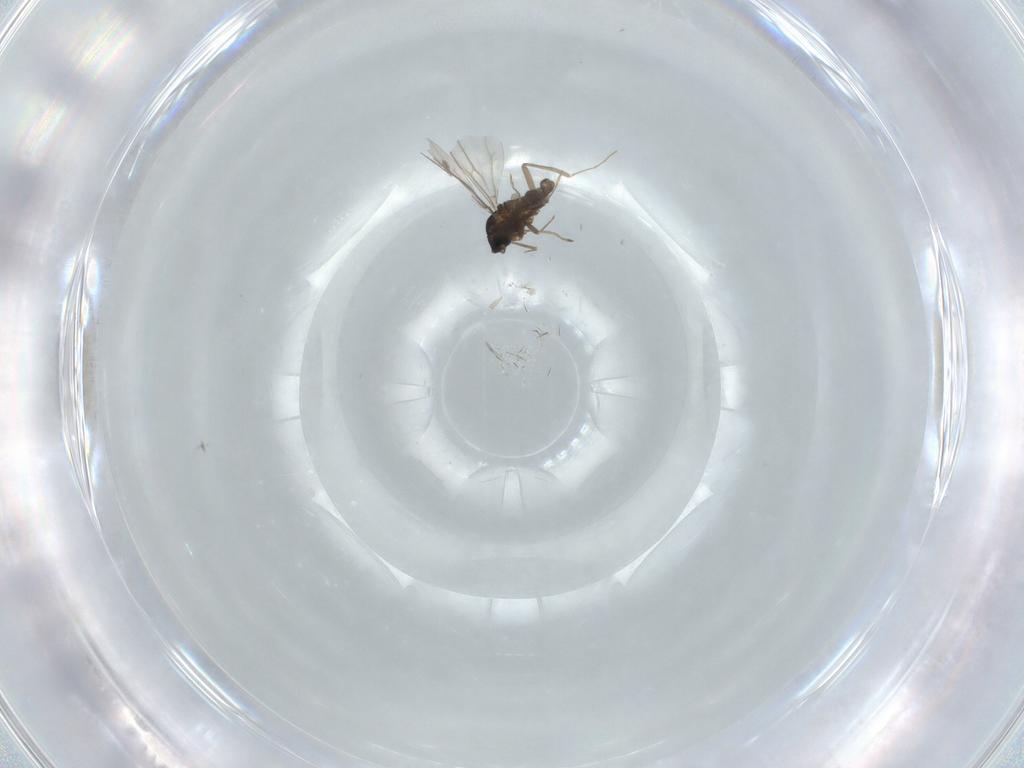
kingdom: Animalia
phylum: Arthropoda
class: Insecta
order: Diptera
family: Cecidomyiidae
